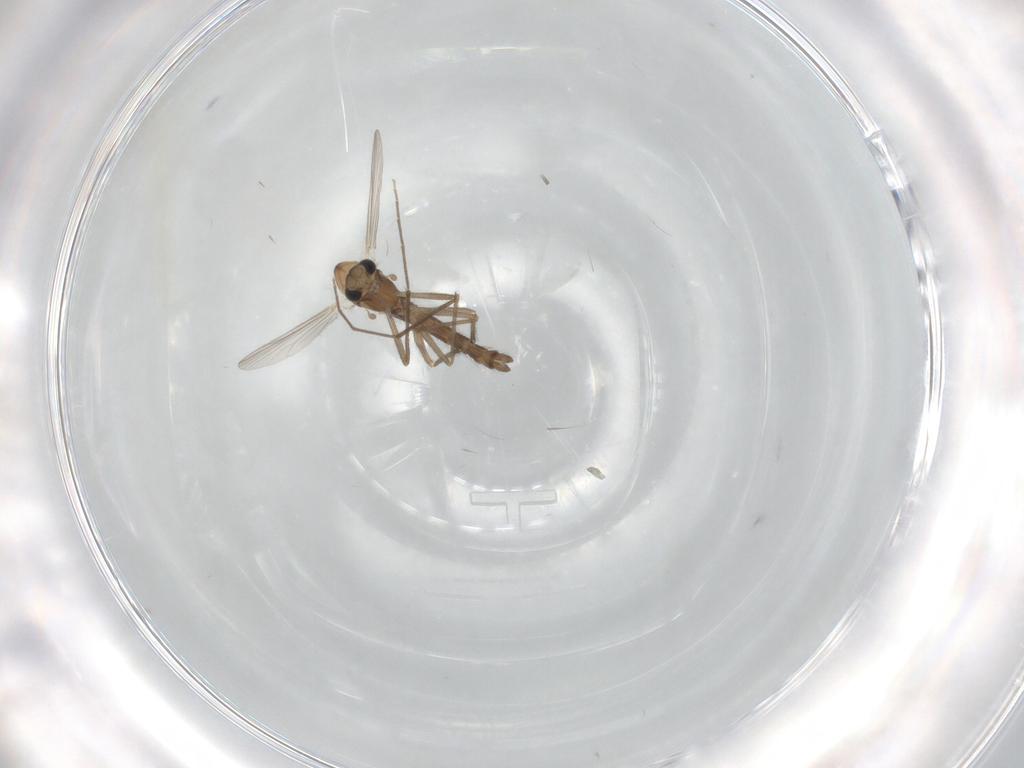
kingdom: Animalia
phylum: Arthropoda
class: Insecta
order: Diptera
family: Chironomidae
